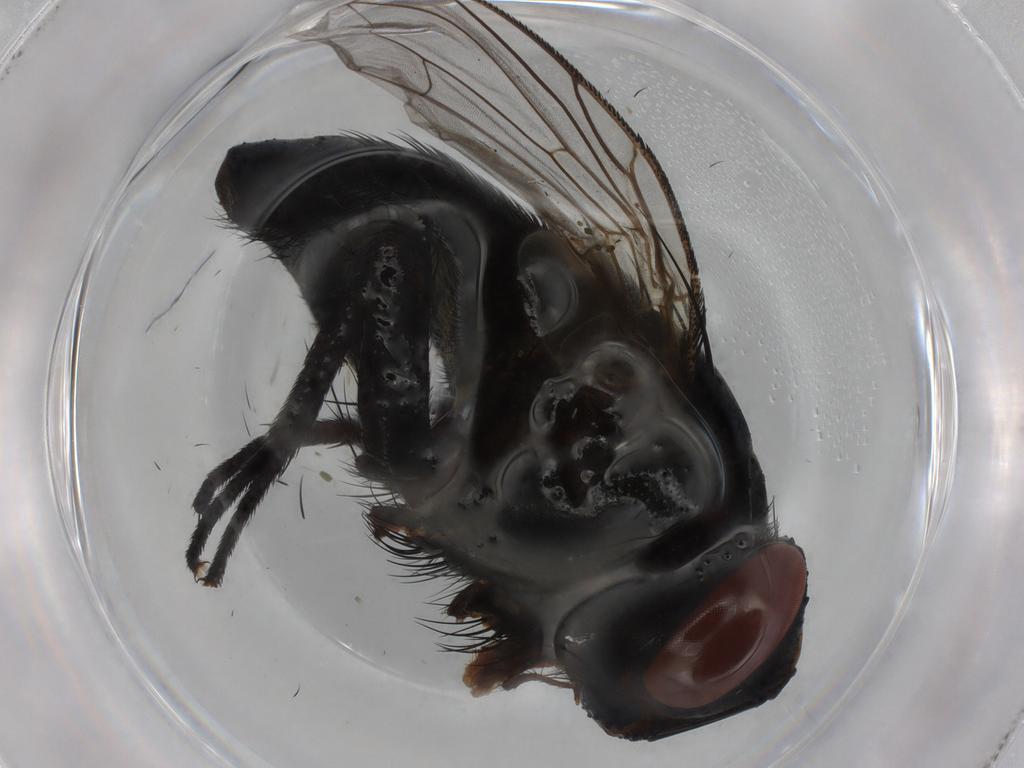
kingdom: Animalia
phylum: Arthropoda
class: Insecta
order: Diptera
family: Tachinidae
